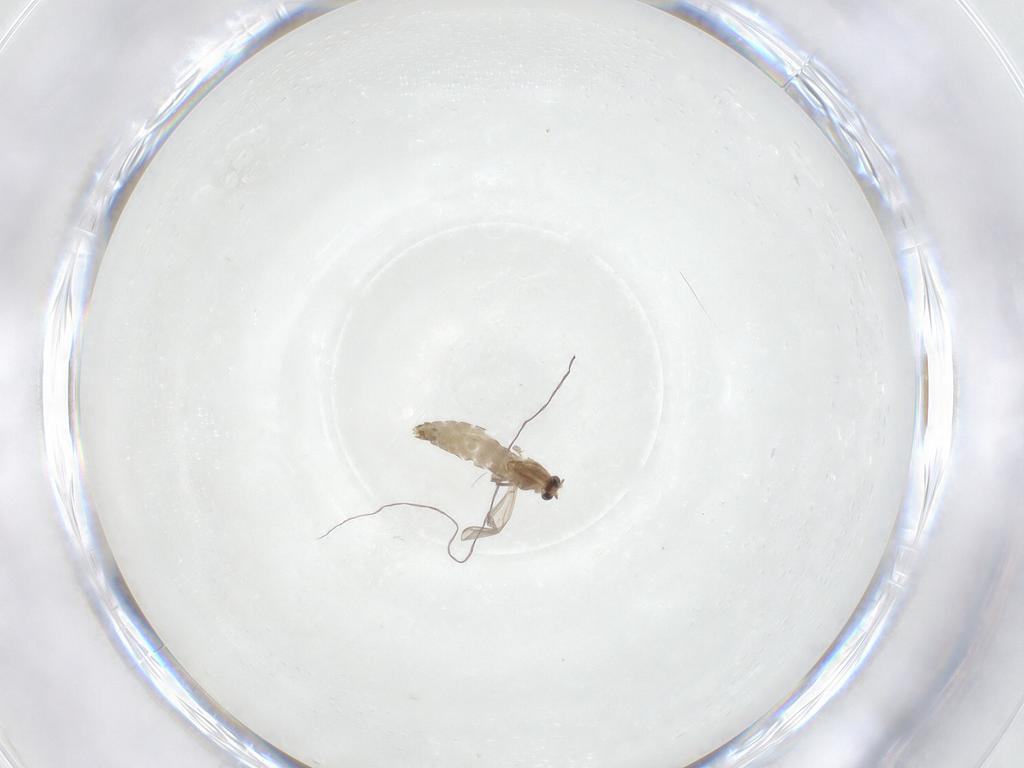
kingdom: Animalia
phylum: Arthropoda
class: Insecta
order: Diptera
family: Chironomidae
